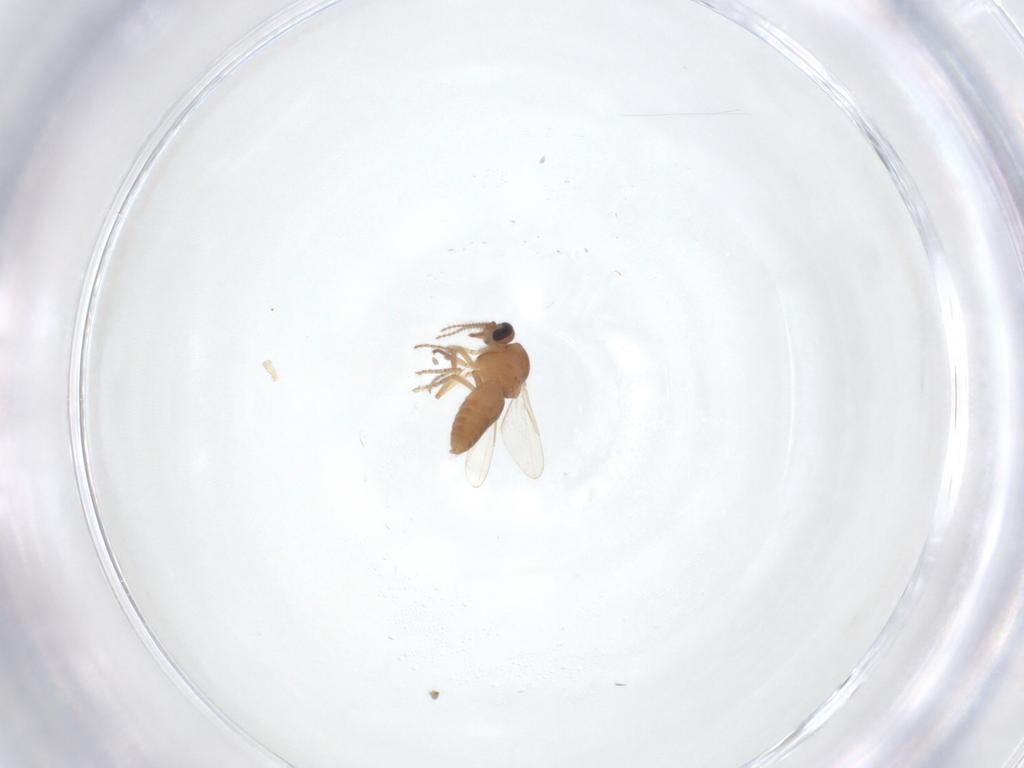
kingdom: Animalia
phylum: Arthropoda
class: Insecta
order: Diptera
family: Ceratopogonidae
